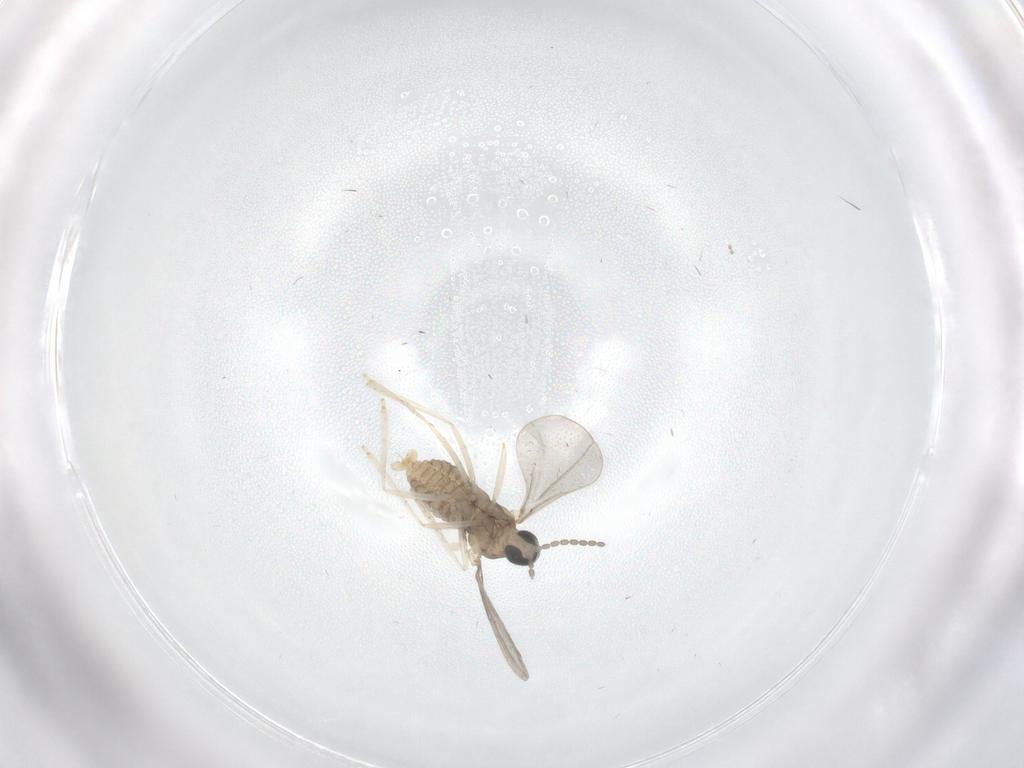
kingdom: Animalia
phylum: Arthropoda
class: Insecta
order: Diptera
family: Cecidomyiidae
